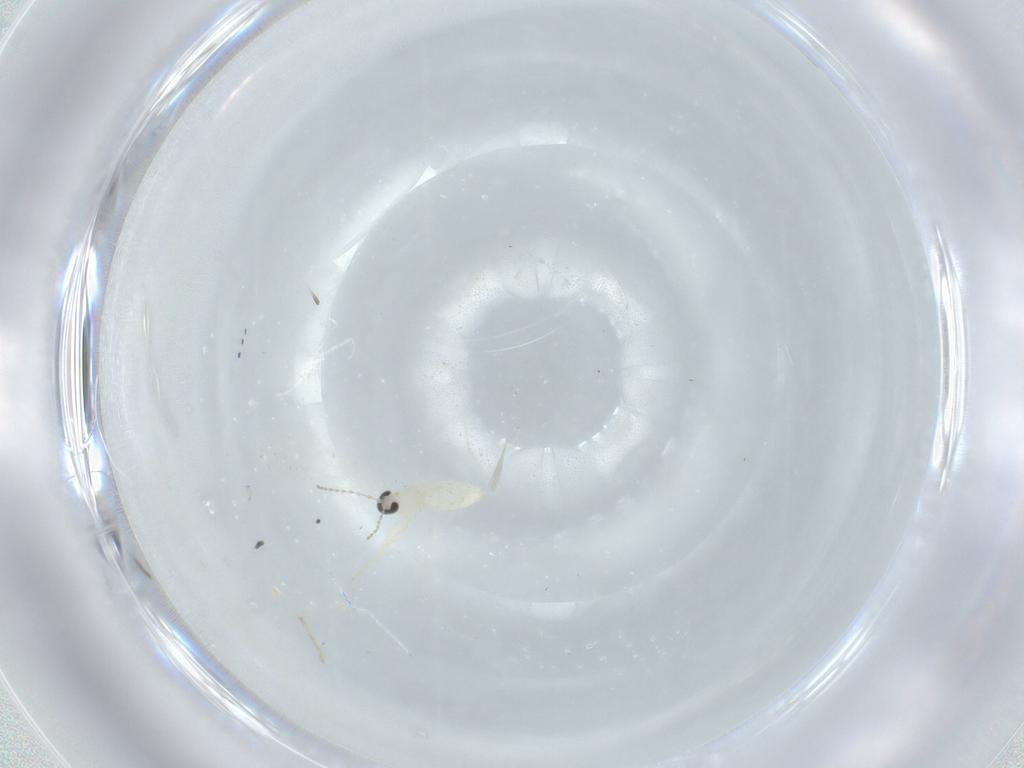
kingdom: Animalia
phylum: Arthropoda
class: Insecta
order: Diptera
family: Cecidomyiidae
